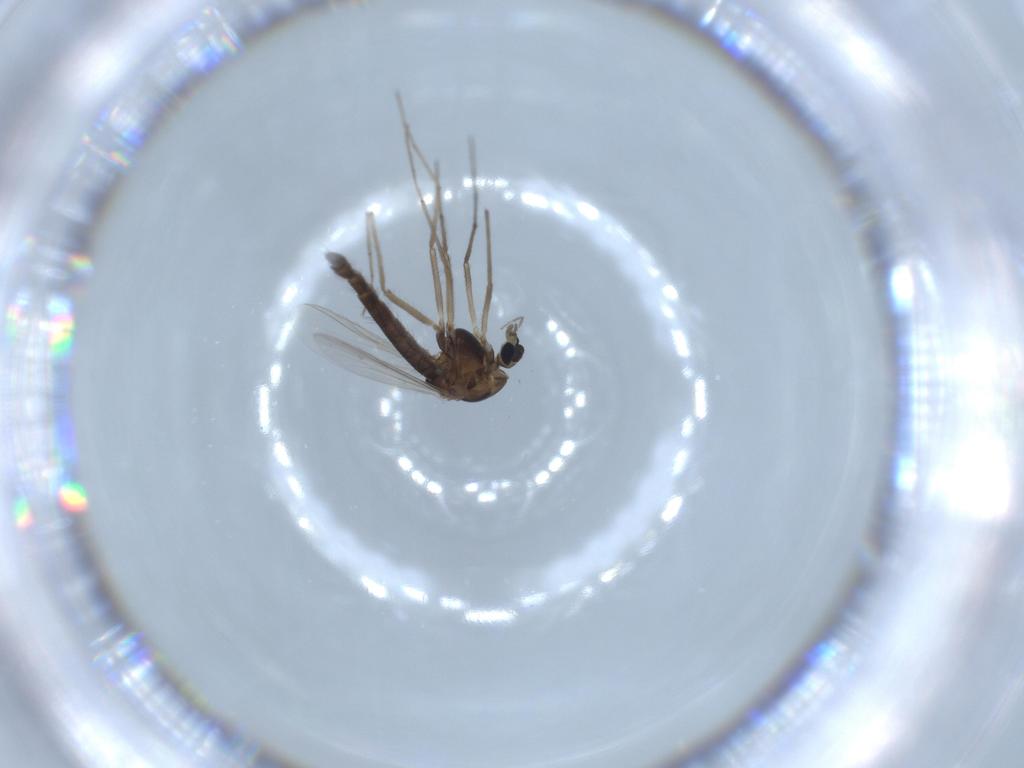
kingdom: Animalia
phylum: Arthropoda
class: Insecta
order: Diptera
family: Chironomidae
